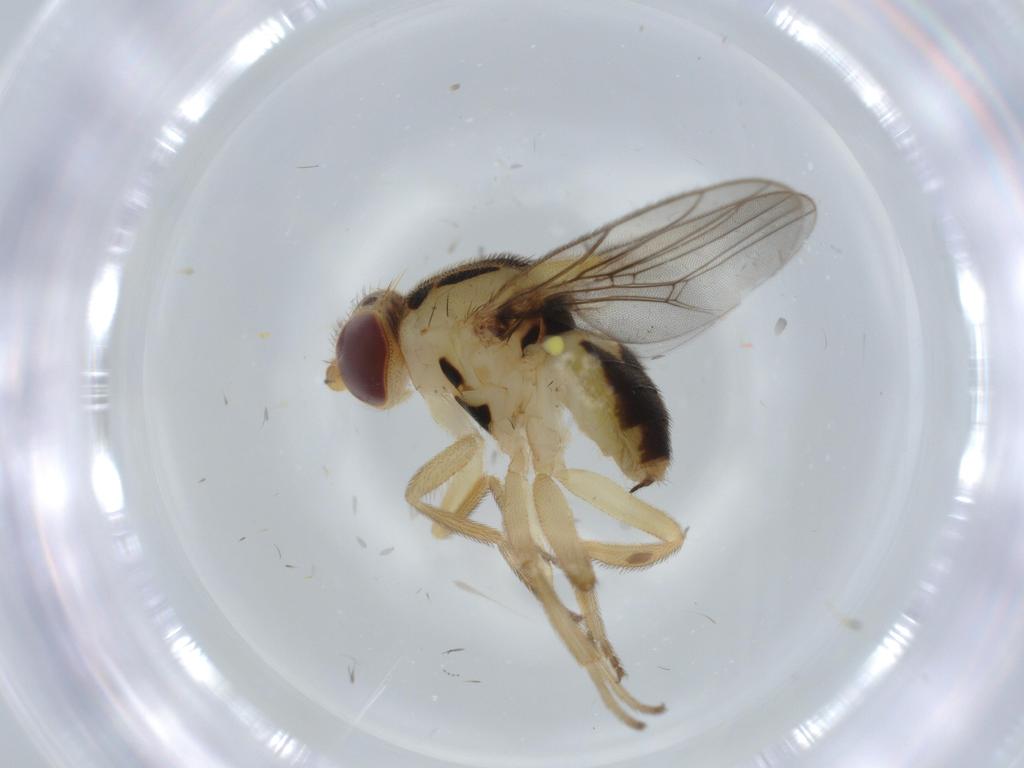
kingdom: Animalia
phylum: Arthropoda
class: Insecta
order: Diptera
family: Chloropidae
